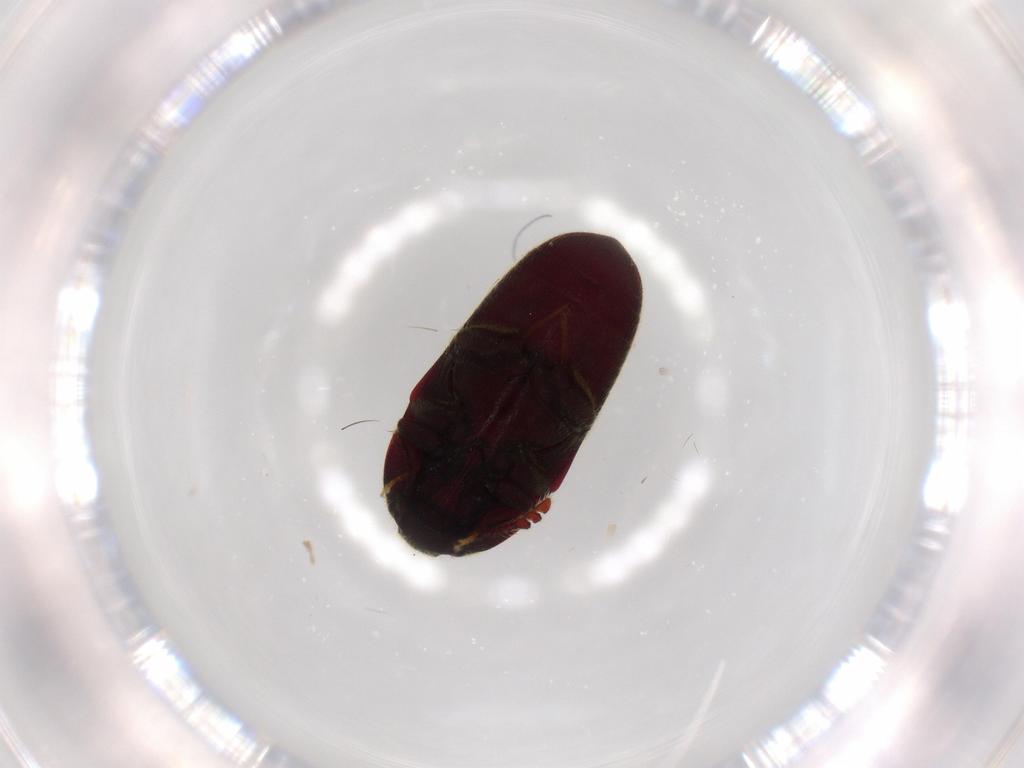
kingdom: Animalia
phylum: Arthropoda
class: Insecta
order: Coleoptera
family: Throscidae
